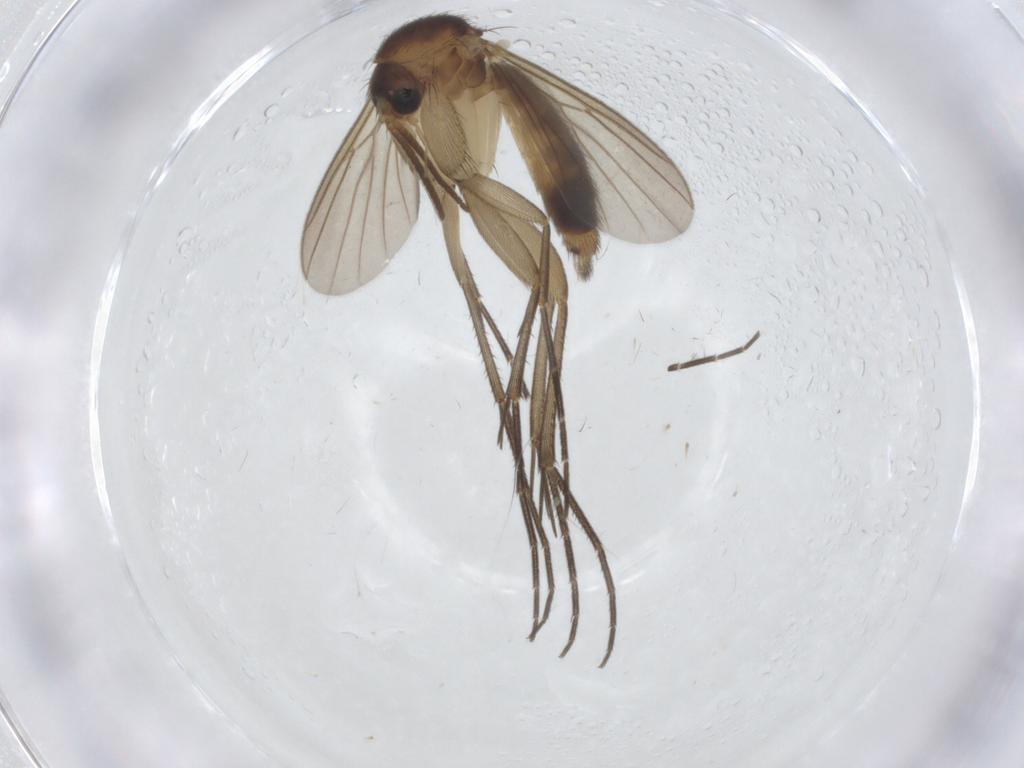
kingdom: Animalia
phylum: Arthropoda
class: Insecta
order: Diptera
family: Mycetophilidae
